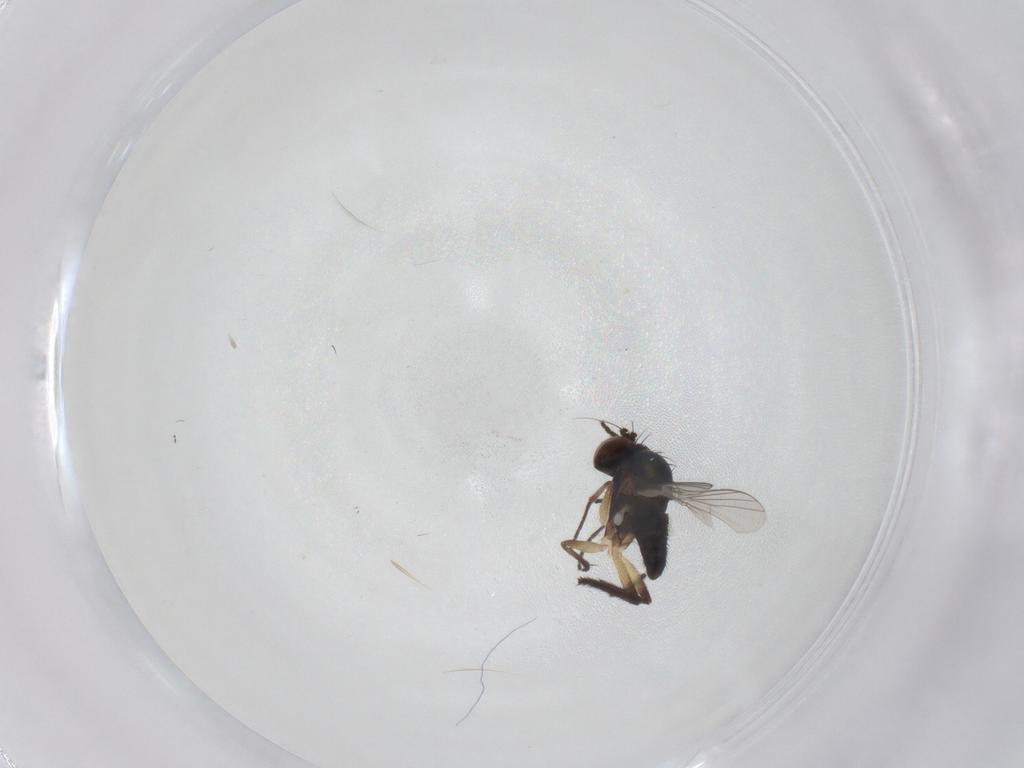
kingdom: Animalia
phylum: Arthropoda
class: Insecta
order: Diptera
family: Dolichopodidae
